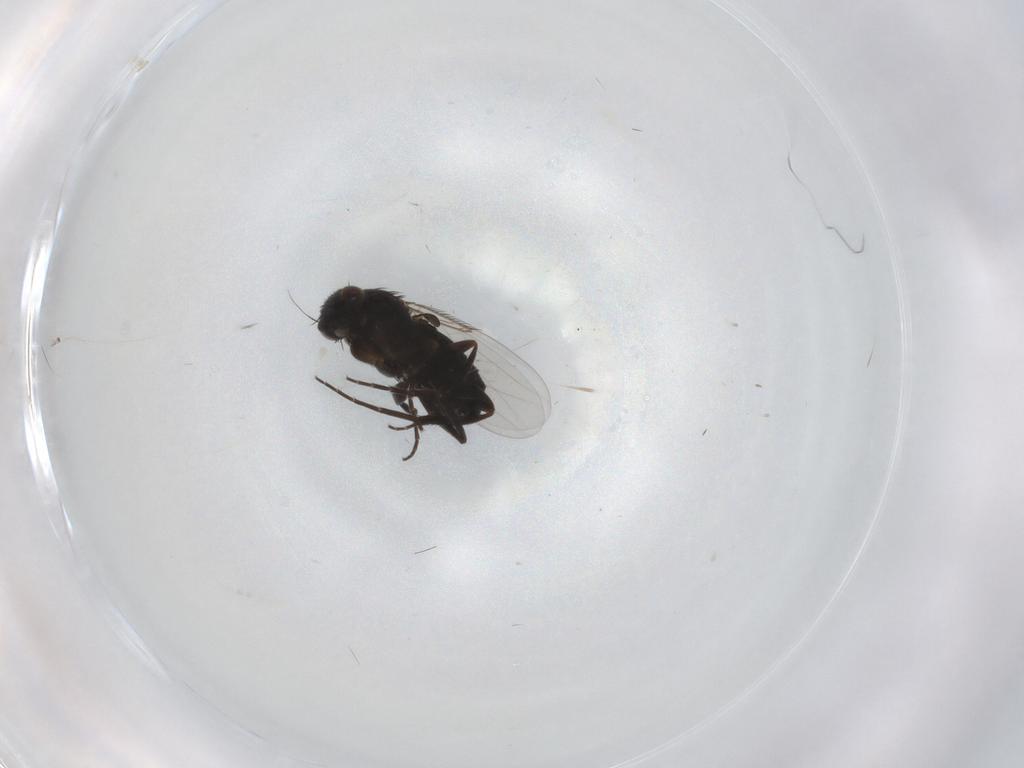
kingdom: Animalia
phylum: Arthropoda
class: Insecta
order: Diptera
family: Phoridae
